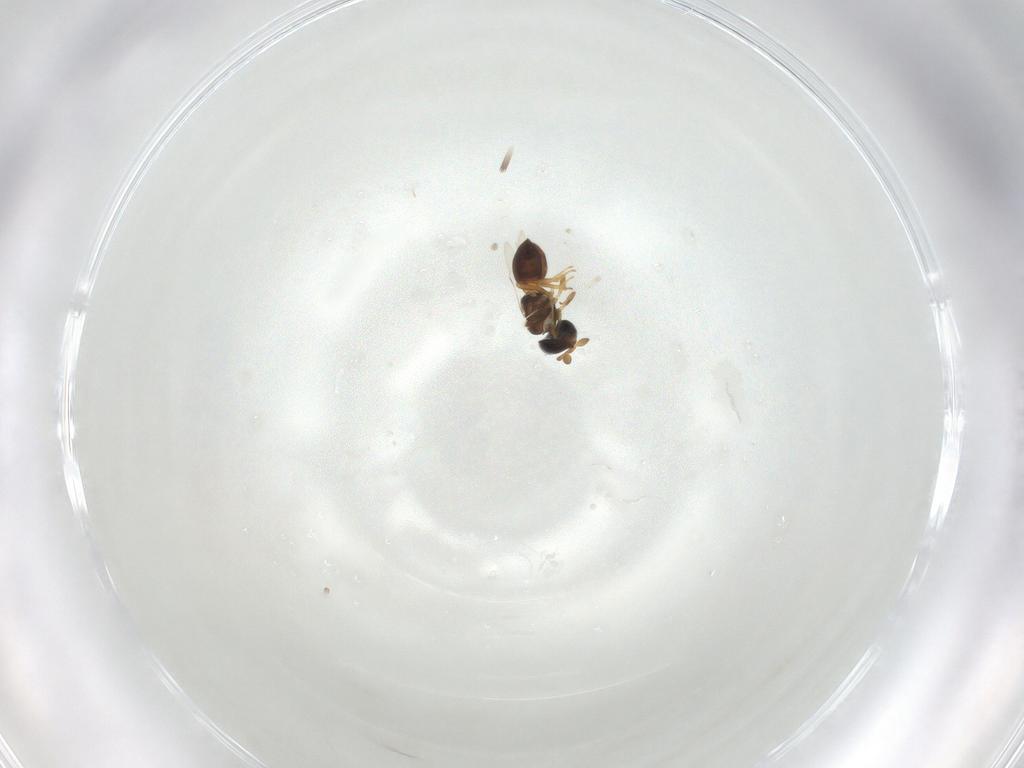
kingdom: Animalia
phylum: Arthropoda
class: Insecta
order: Hymenoptera
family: Scelionidae
